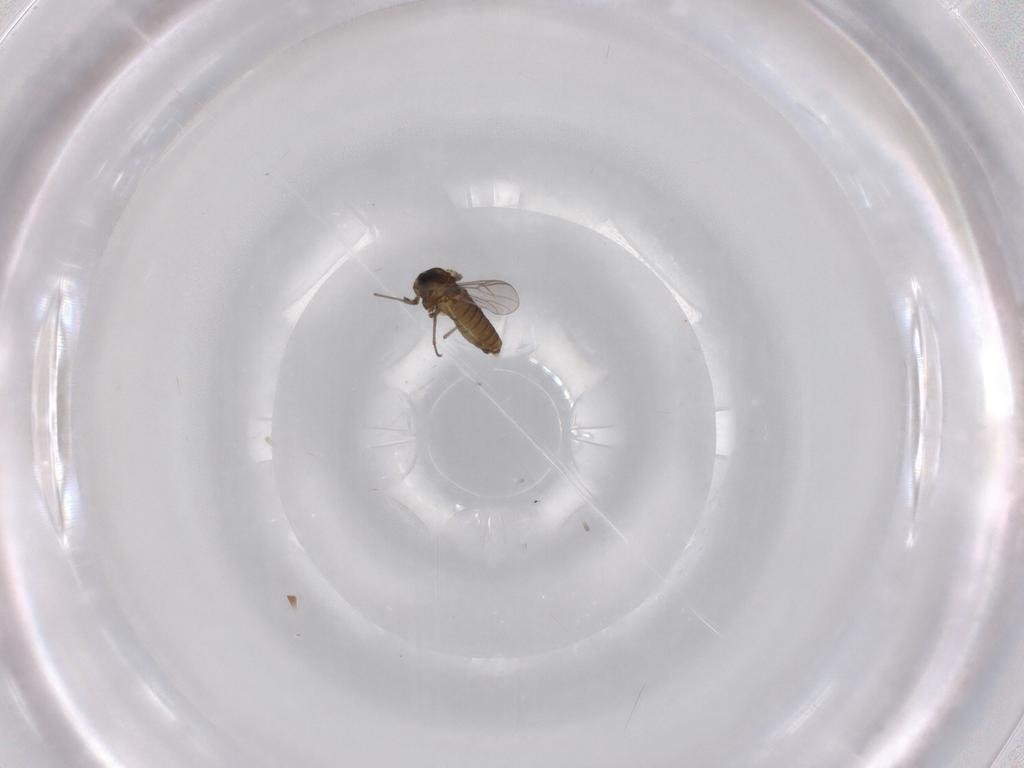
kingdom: Animalia
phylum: Arthropoda
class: Insecta
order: Diptera
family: Chironomidae
